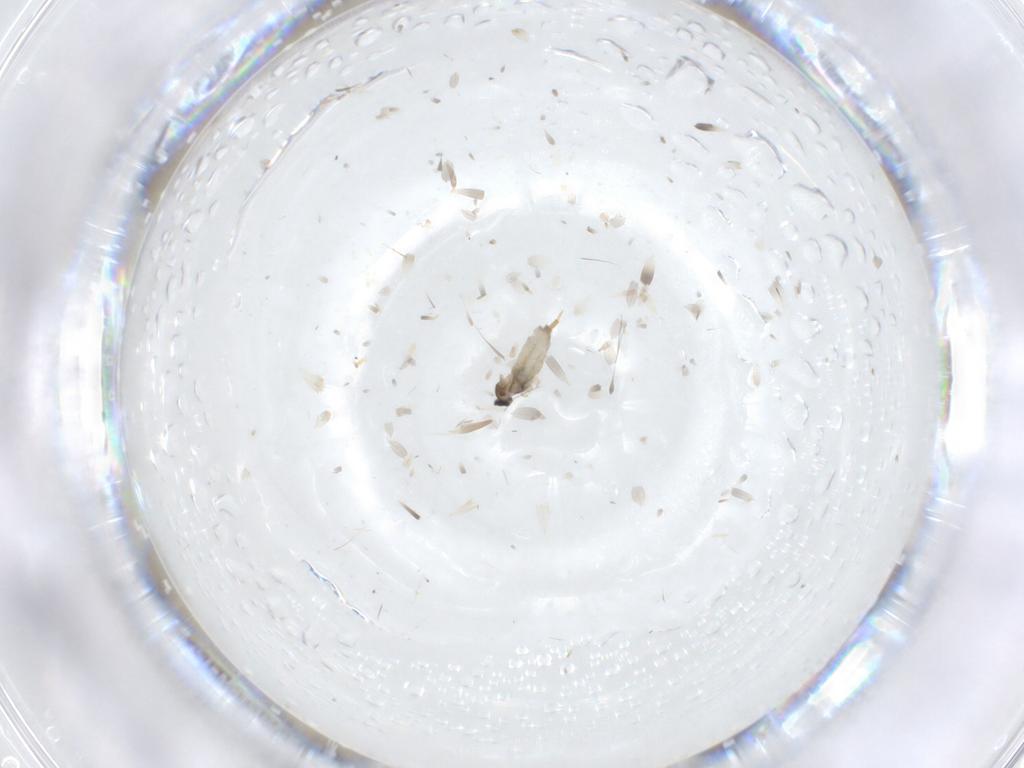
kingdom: Animalia
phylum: Arthropoda
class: Insecta
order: Diptera
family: Cecidomyiidae
